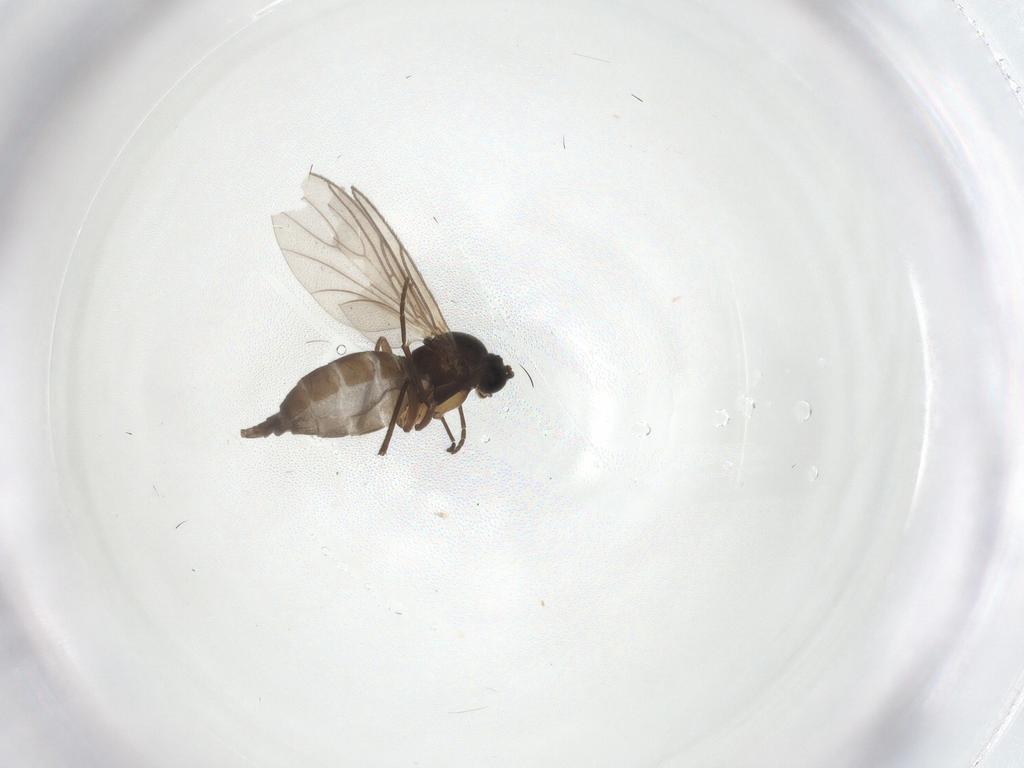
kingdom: Animalia
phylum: Arthropoda
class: Insecta
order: Diptera
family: Sciaridae
